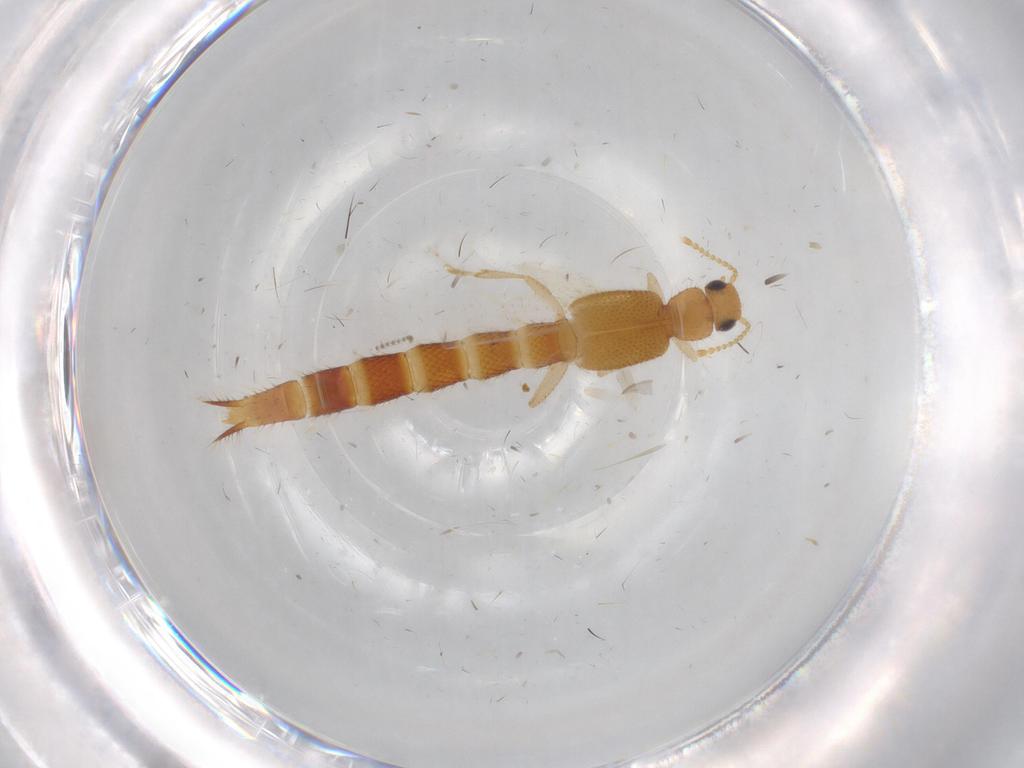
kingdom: Animalia
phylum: Arthropoda
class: Insecta
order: Coleoptera
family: Staphylinidae
